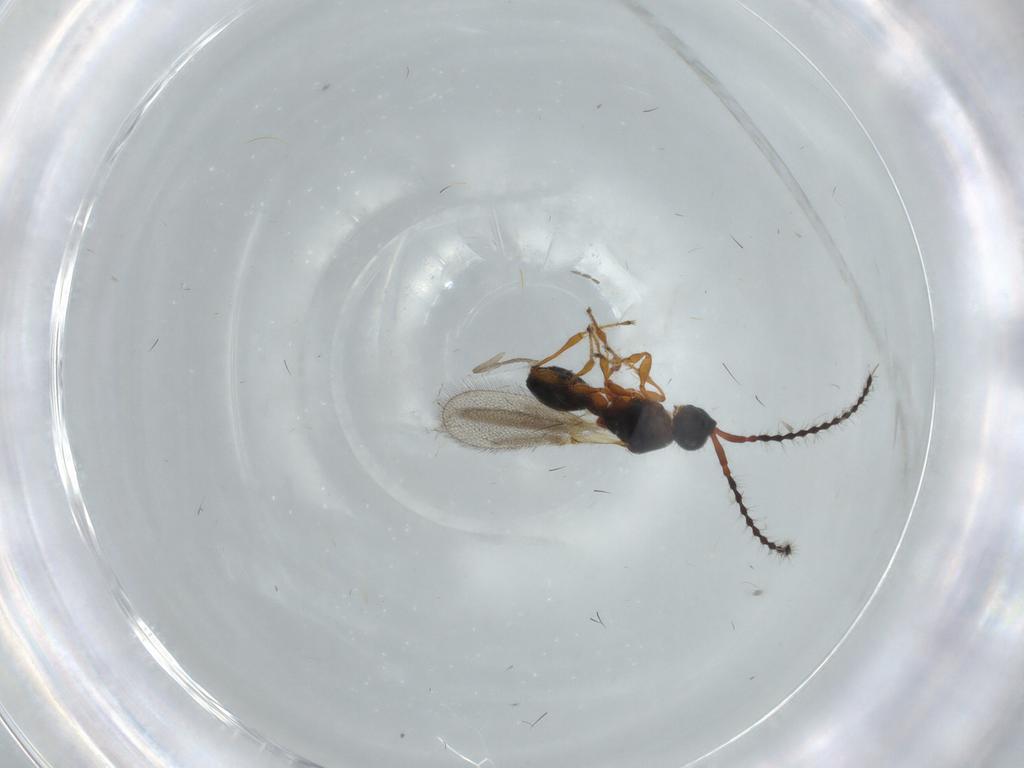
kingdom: Animalia
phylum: Arthropoda
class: Insecta
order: Hymenoptera
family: Diapriidae
